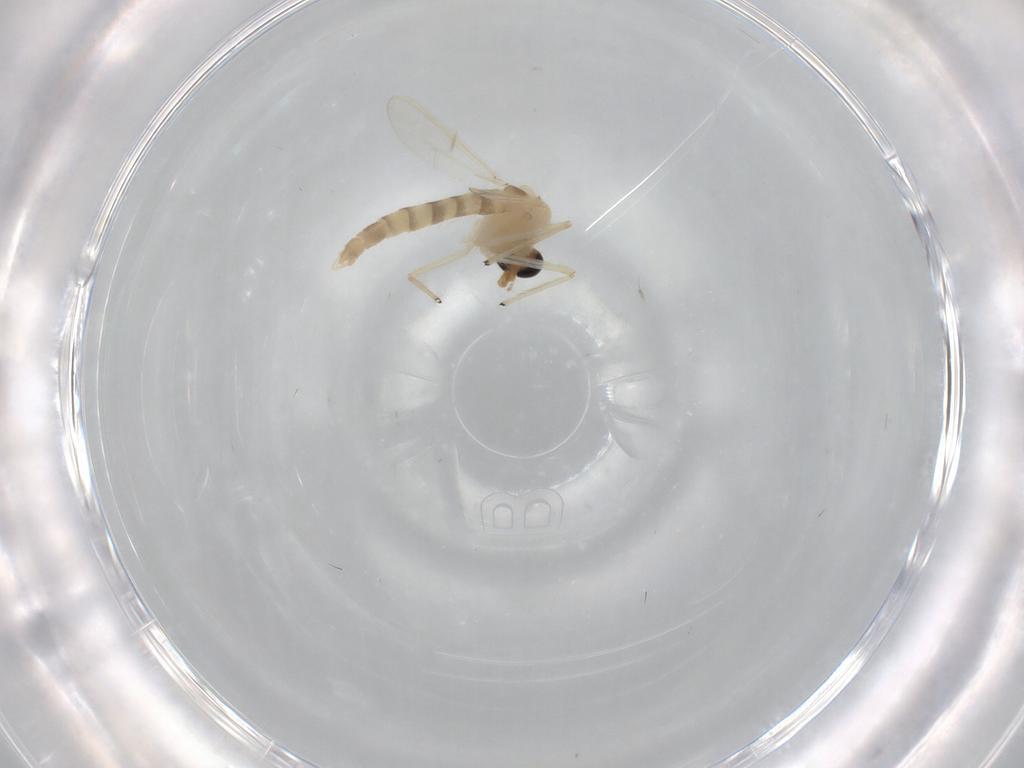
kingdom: Animalia
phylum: Arthropoda
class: Insecta
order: Diptera
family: Chironomidae
